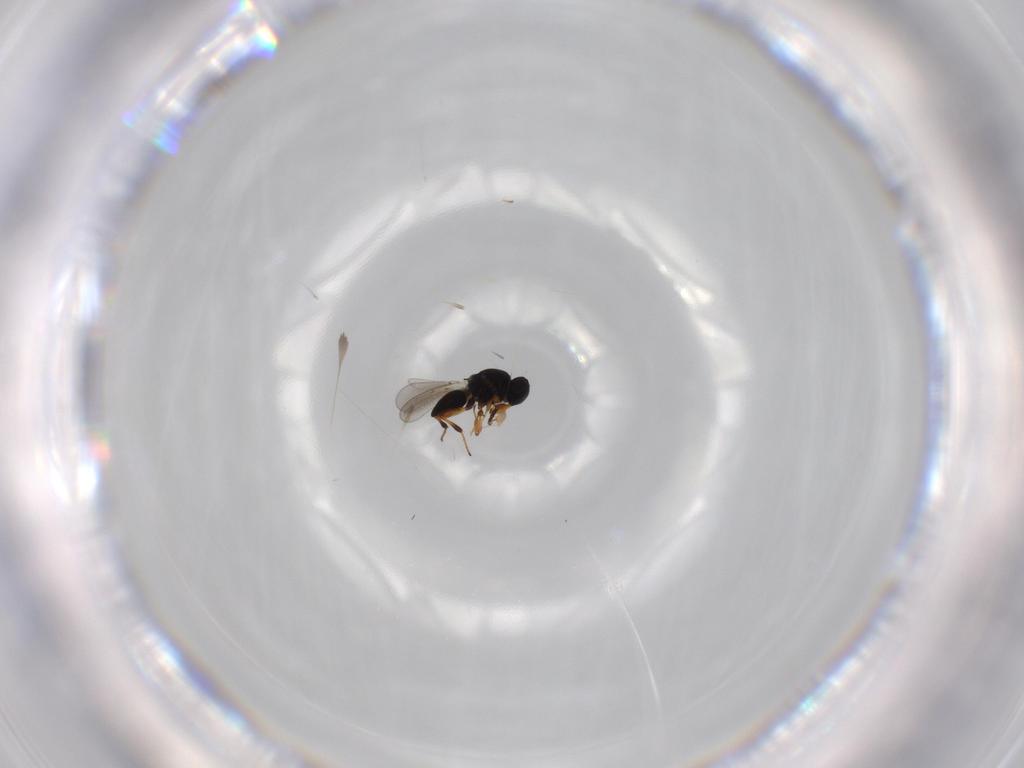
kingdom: Animalia
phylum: Arthropoda
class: Insecta
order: Hymenoptera
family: Platygastridae
